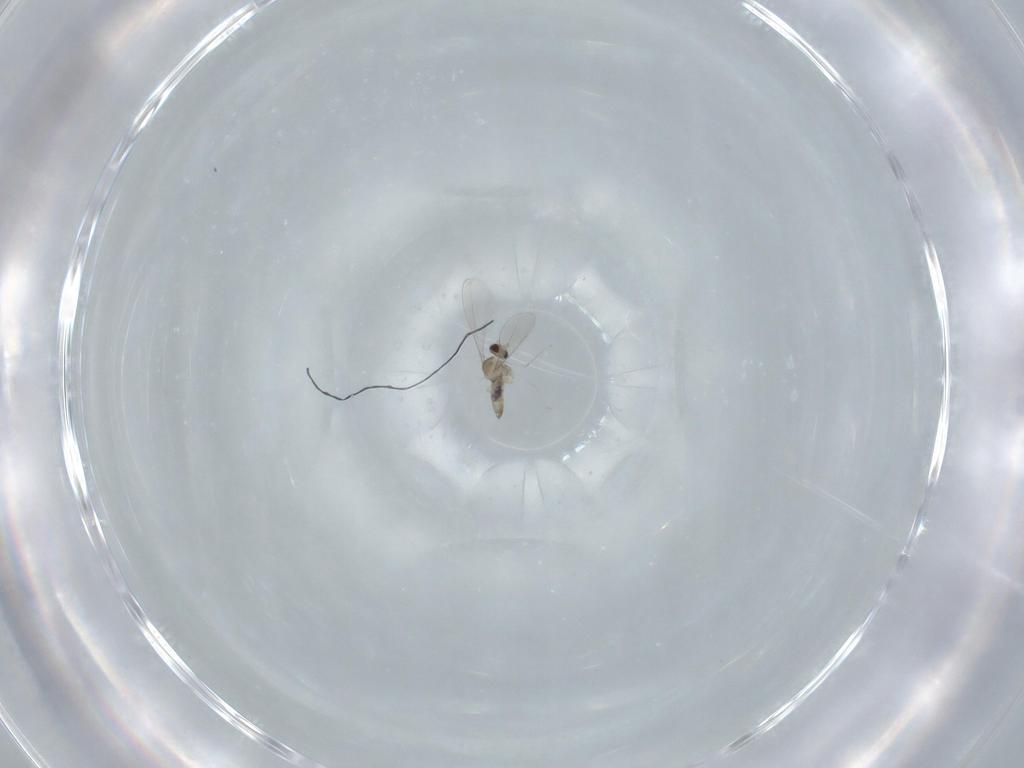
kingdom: Animalia
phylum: Arthropoda
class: Insecta
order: Diptera
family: Cecidomyiidae
